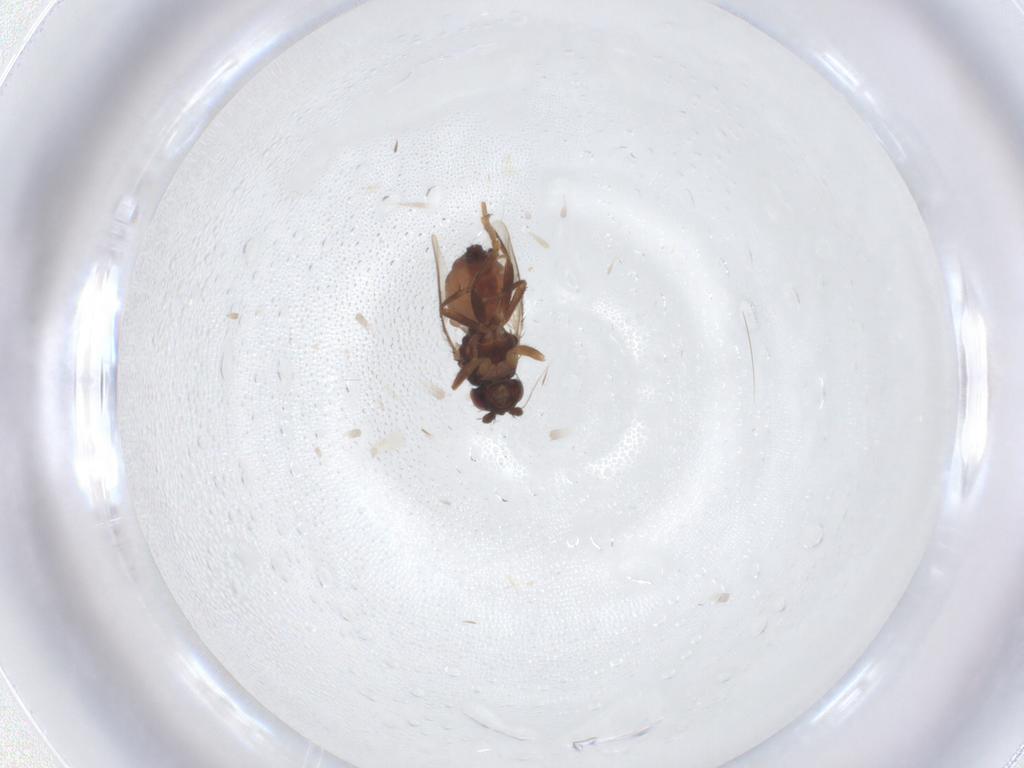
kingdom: Animalia
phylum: Arthropoda
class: Insecta
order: Diptera
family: Sphaeroceridae
